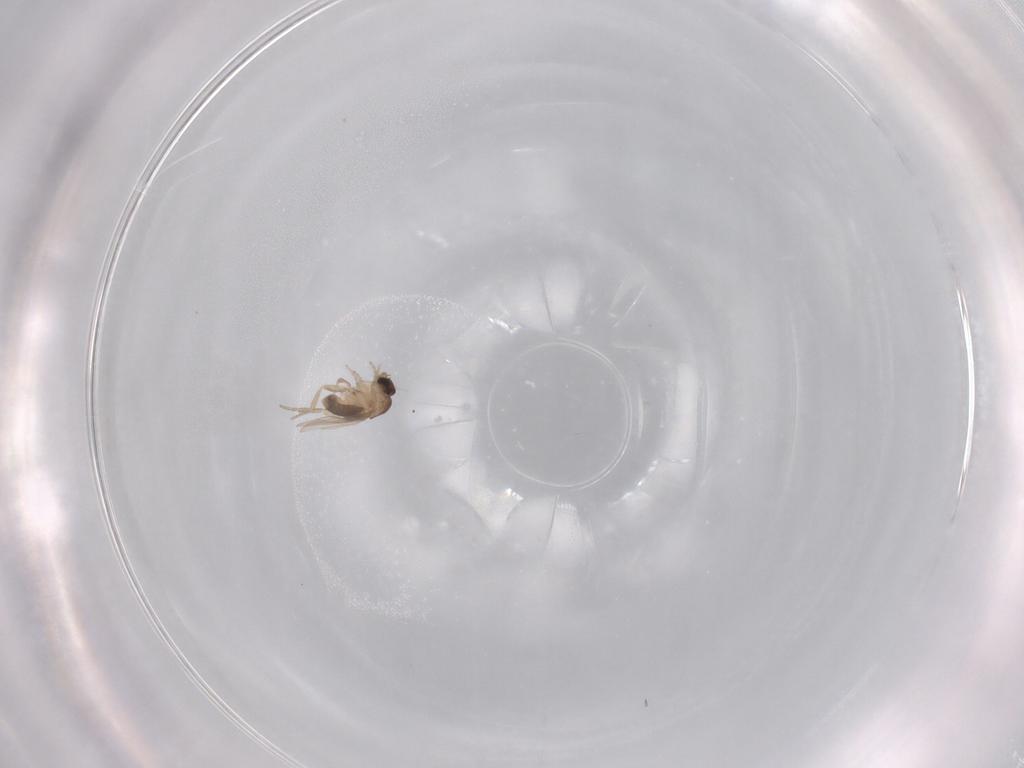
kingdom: Animalia
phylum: Arthropoda
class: Insecta
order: Diptera
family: Phoridae
